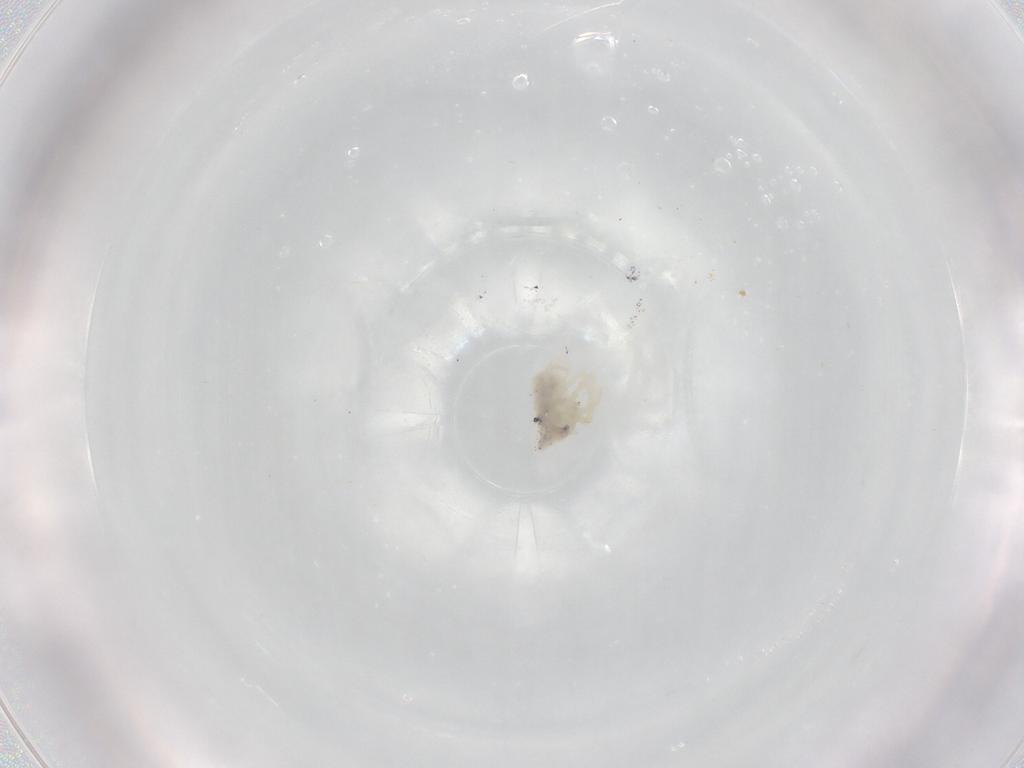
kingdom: Animalia
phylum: Arthropoda
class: Arachnida
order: Trombidiformes
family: Rhagidiidae
